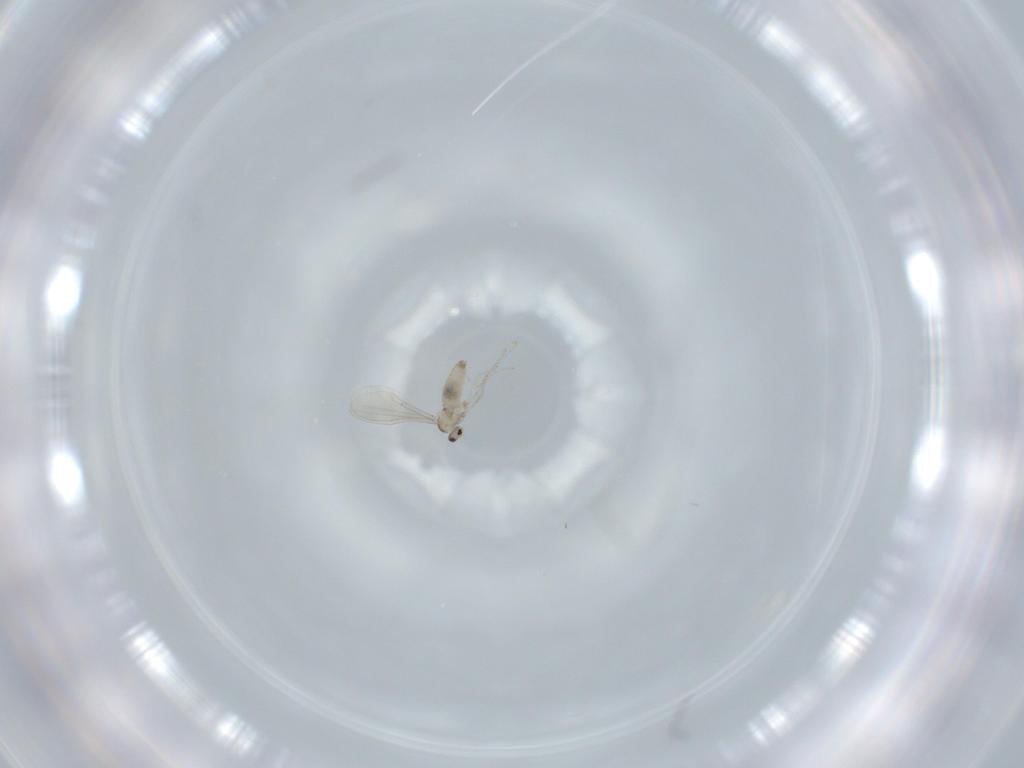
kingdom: Animalia
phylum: Arthropoda
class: Insecta
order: Diptera
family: Cecidomyiidae
